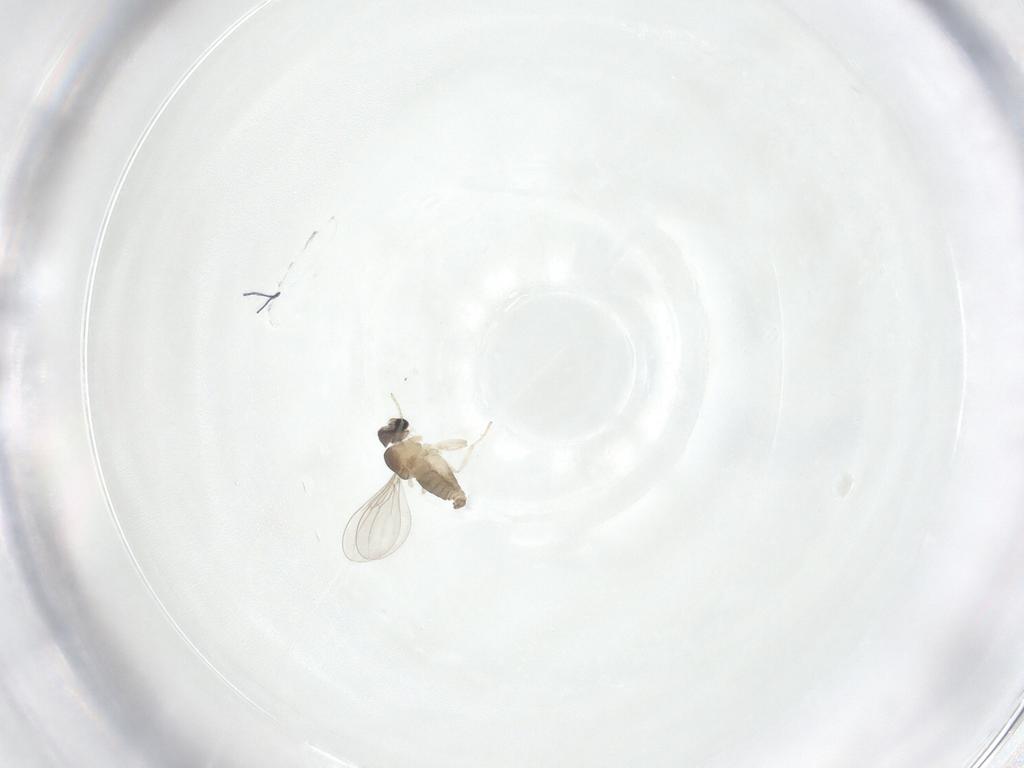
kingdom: Animalia
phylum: Arthropoda
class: Insecta
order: Diptera
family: Cecidomyiidae
